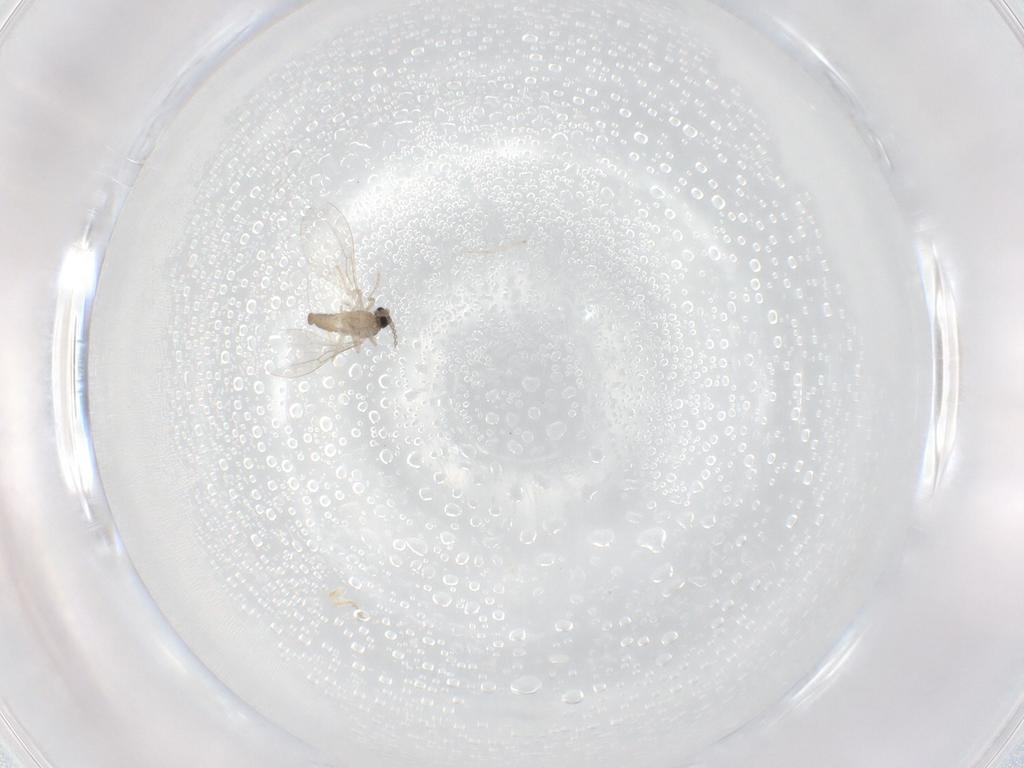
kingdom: Animalia
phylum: Arthropoda
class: Insecta
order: Diptera
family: Cecidomyiidae
